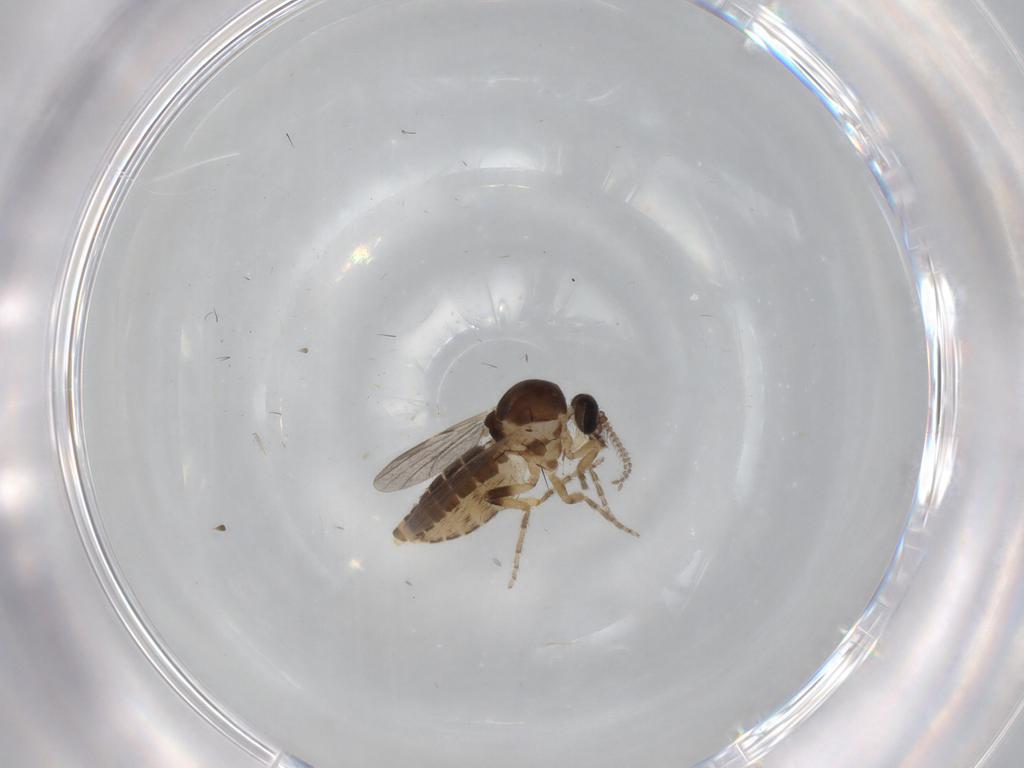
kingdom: Animalia
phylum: Arthropoda
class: Insecta
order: Diptera
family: Ceratopogonidae
